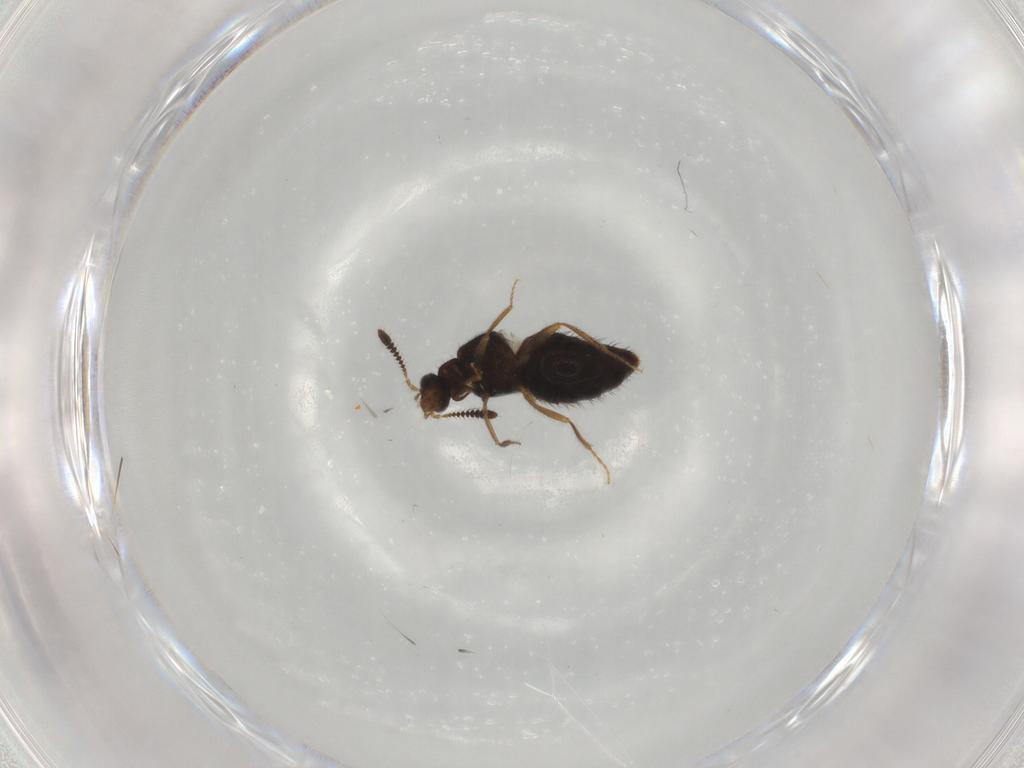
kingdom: Animalia
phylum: Arthropoda
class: Insecta
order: Coleoptera
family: Staphylinidae
